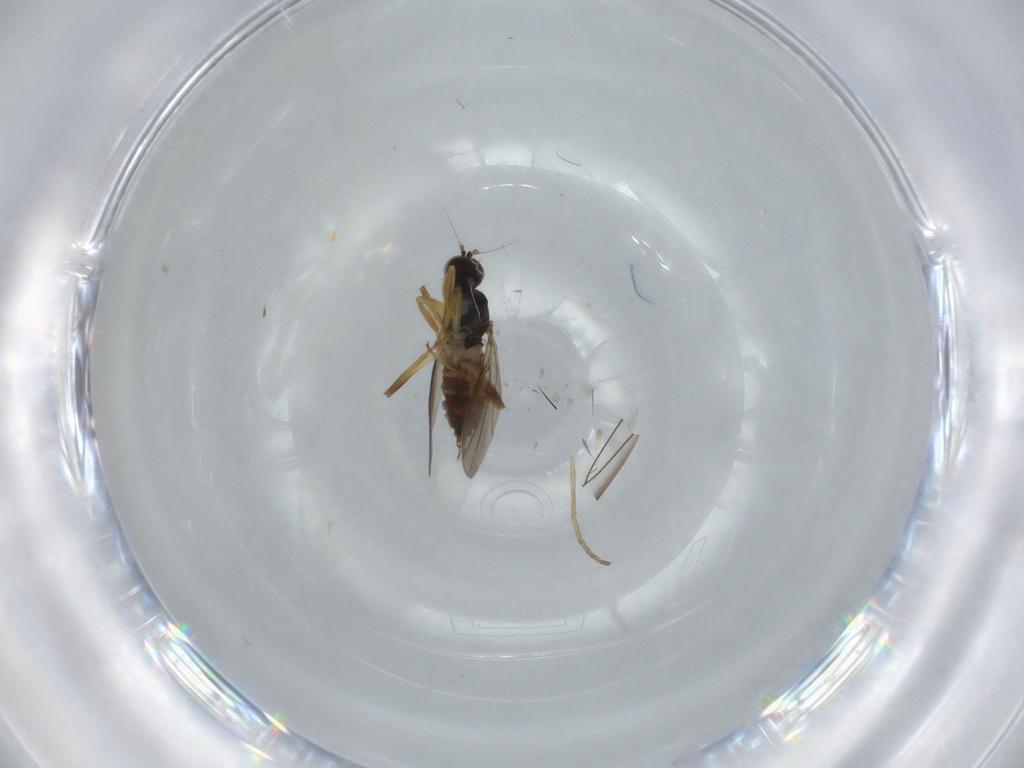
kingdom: Animalia
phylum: Arthropoda
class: Insecta
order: Diptera
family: Hybotidae
